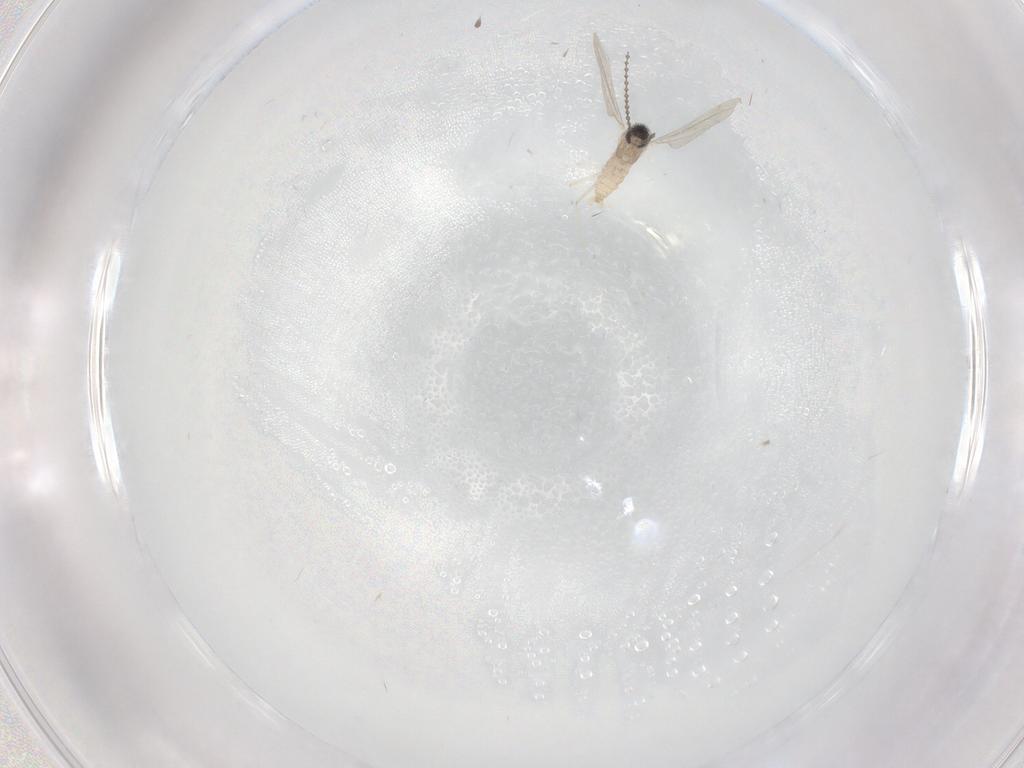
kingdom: Animalia
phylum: Arthropoda
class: Insecta
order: Diptera
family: Cecidomyiidae
